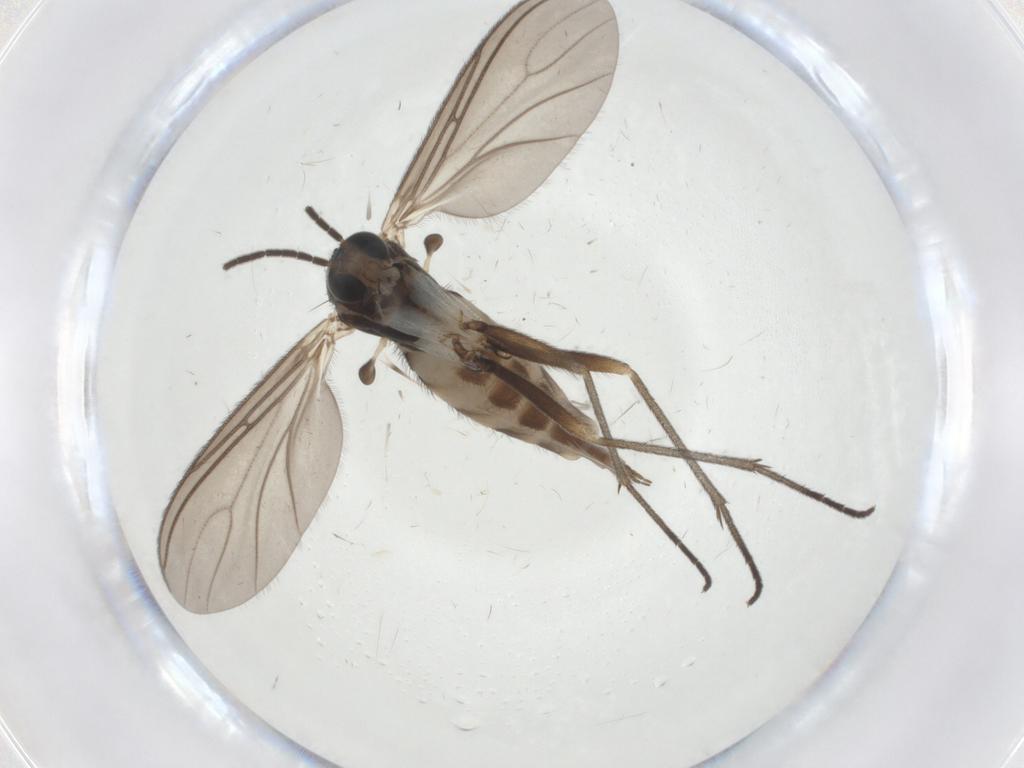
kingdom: Animalia
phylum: Arthropoda
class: Insecta
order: Diptera
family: Sciaridae
